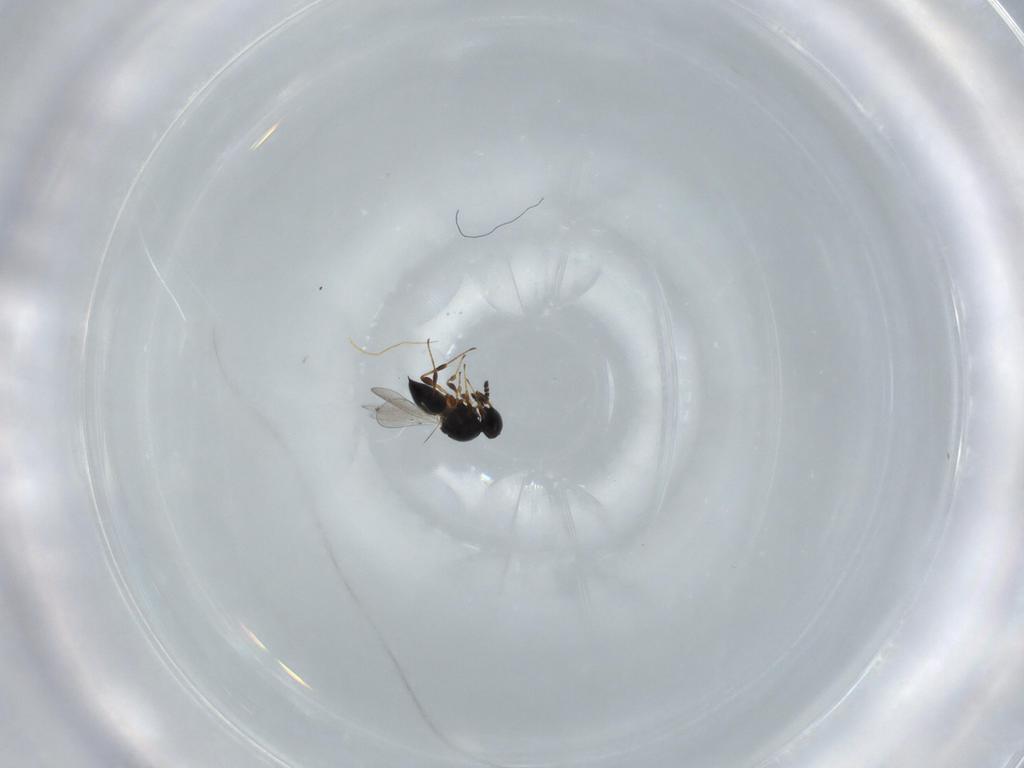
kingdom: Animalia
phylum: Arthropoda
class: Insecta
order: Hymenoptera
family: Platygastridae
